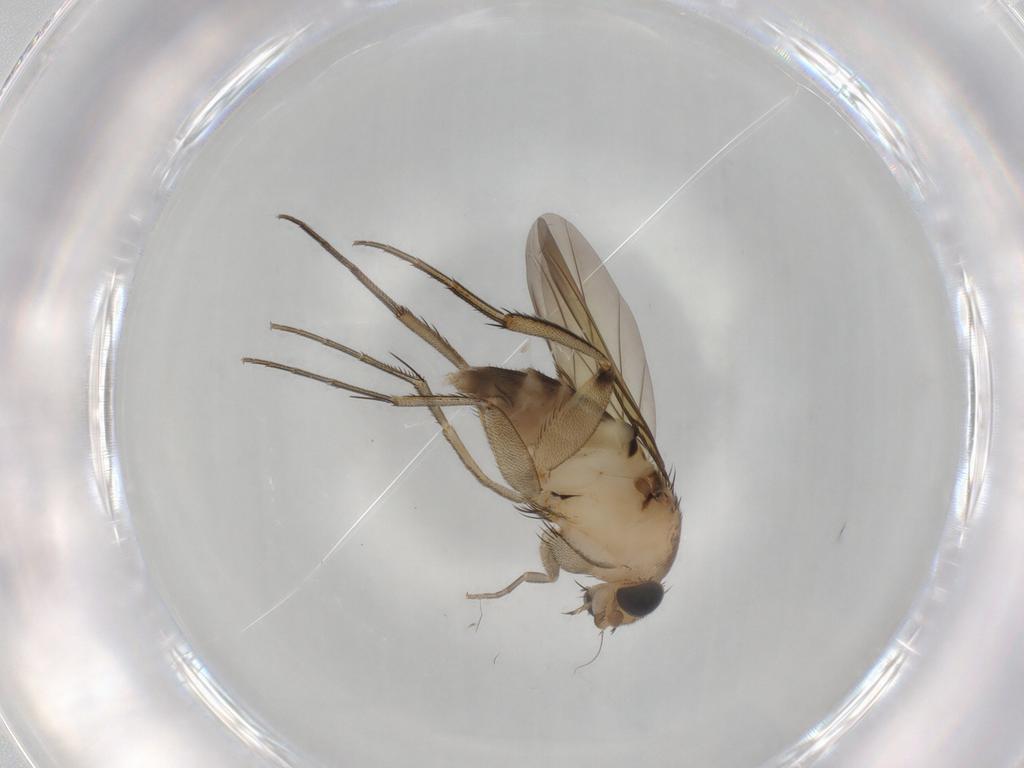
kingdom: Animalia
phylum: Arthropoda
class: Insecta
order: Diptera
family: Phoridae
